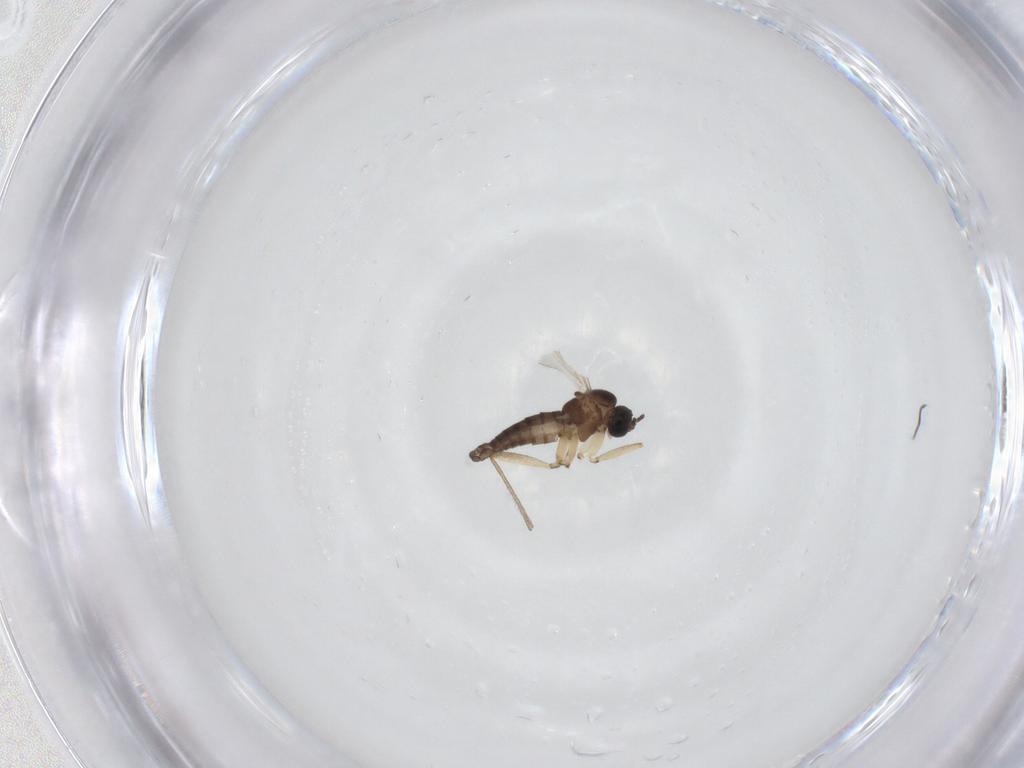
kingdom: Animalia
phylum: Arthropoda
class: Insecta
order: Diptera
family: Sciaridae
